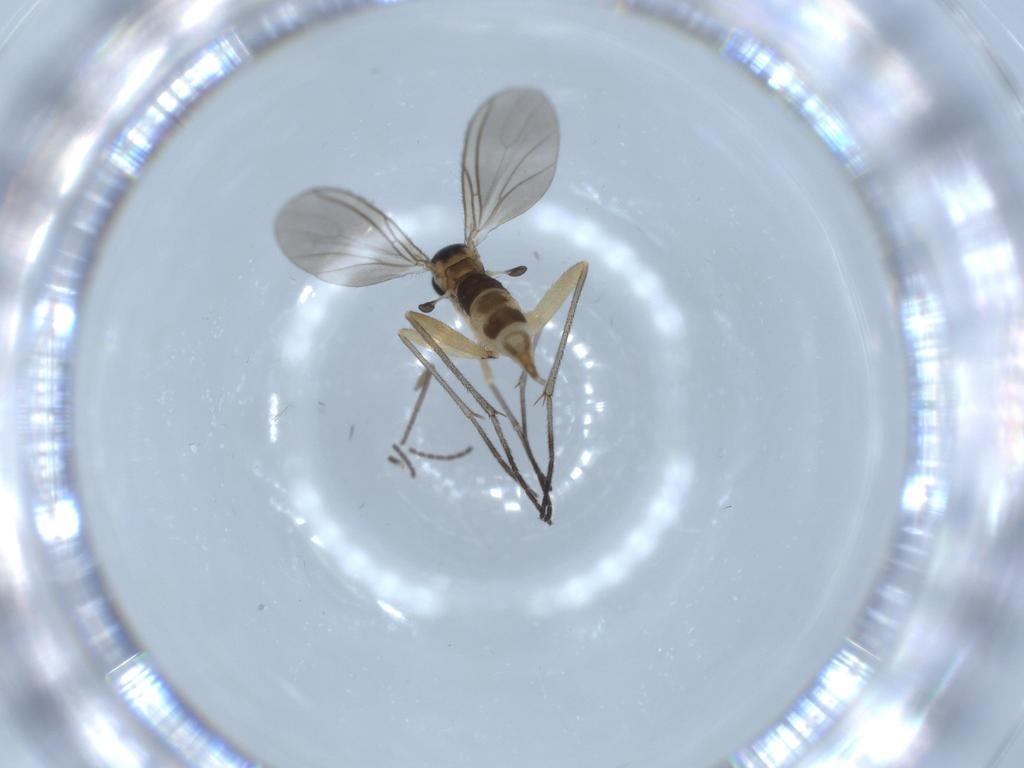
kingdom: Animalia
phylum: Arthropoda
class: Insecta
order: Diptera
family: Sciaridae
